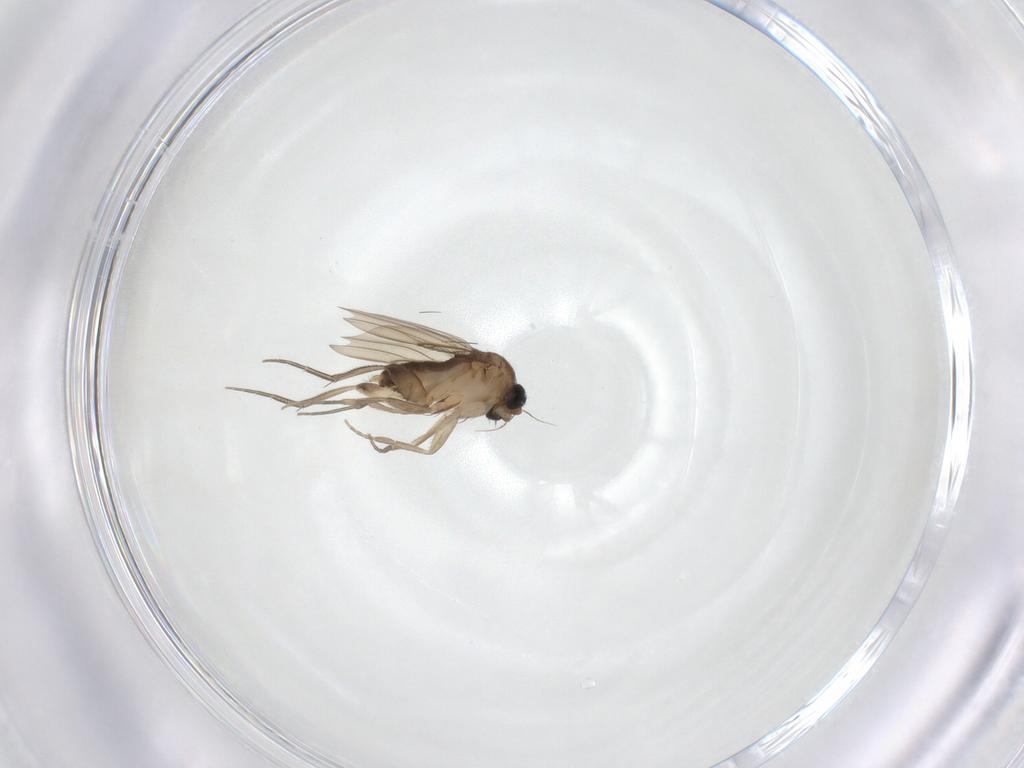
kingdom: Animalia
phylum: Arthropoda
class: Insecta
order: Diptera
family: Phoridae
